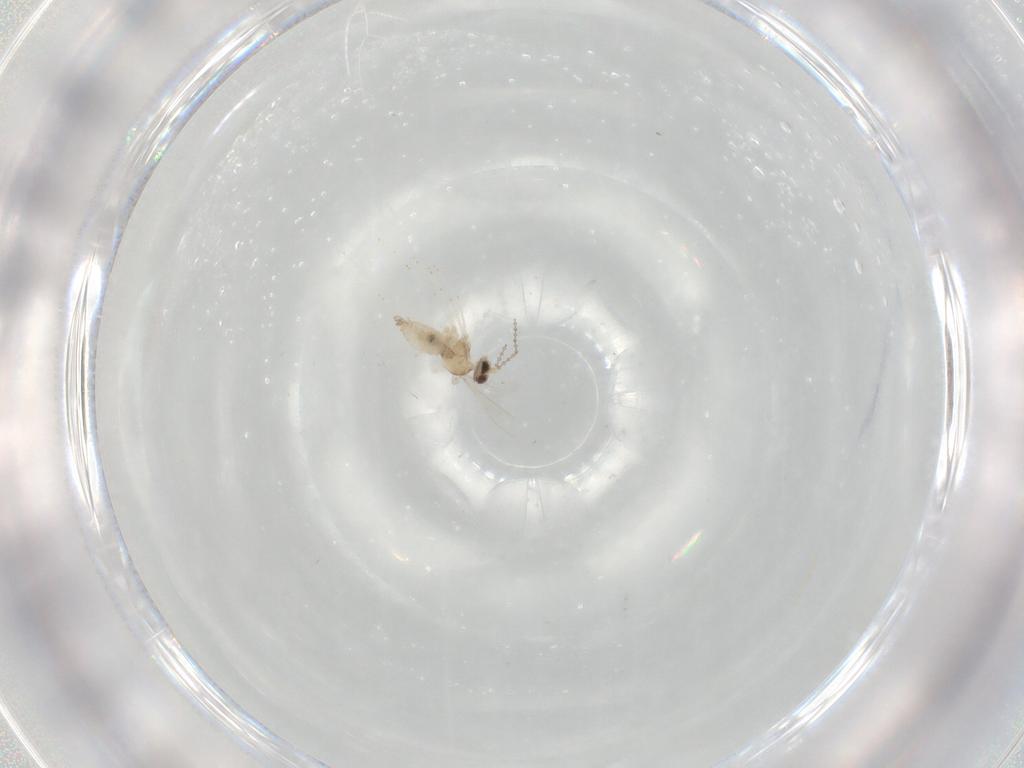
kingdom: Animalia
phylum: Arthropoda
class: Insecta
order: Diptera
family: Cecidomyiidae
